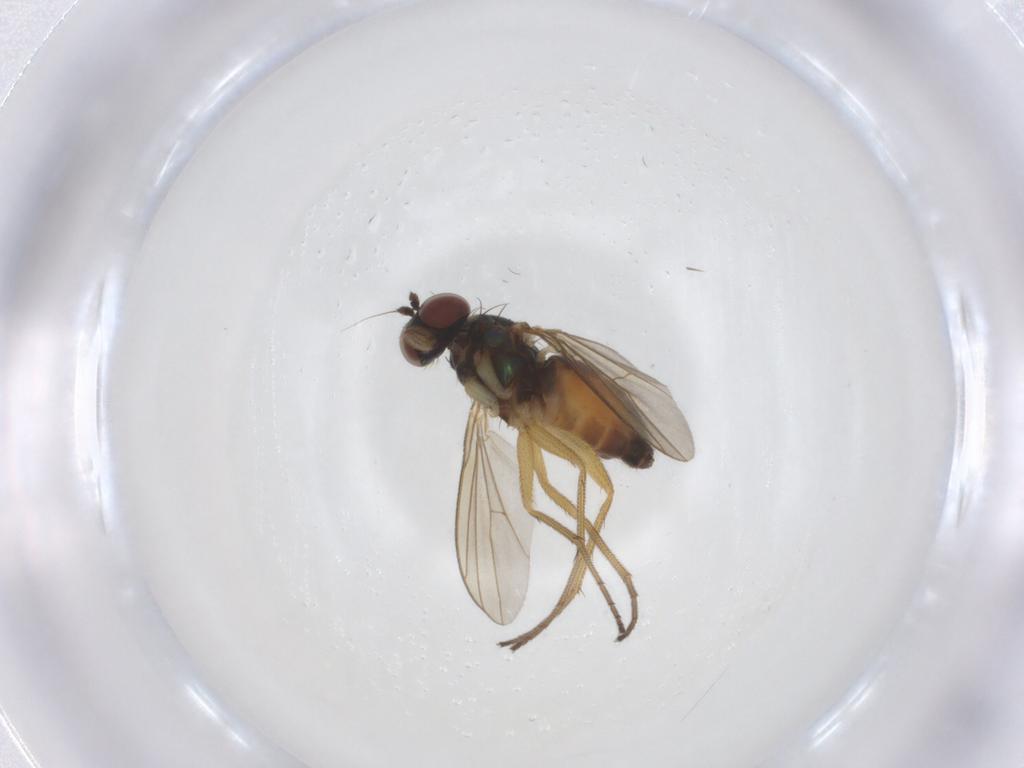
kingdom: Animalia
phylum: Arthropoda
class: Insecta
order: Diptera
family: Dolichopodidae
